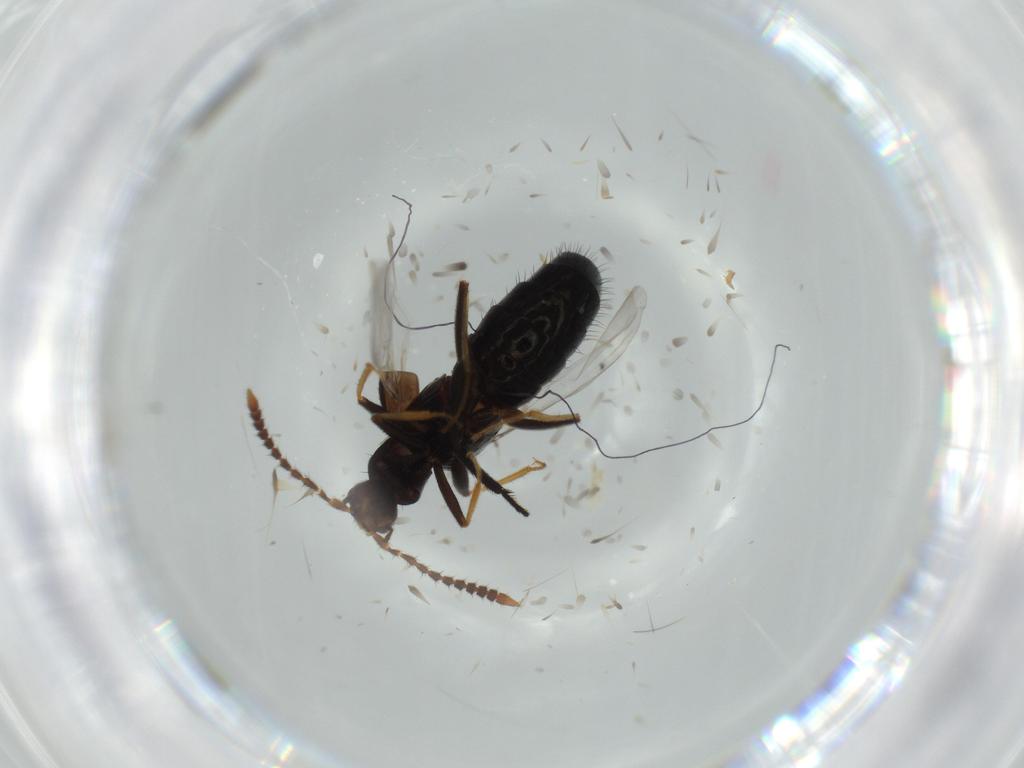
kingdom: Animalia
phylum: Arthropoda
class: Insecta
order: Coleoptera
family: Staphylinidae
